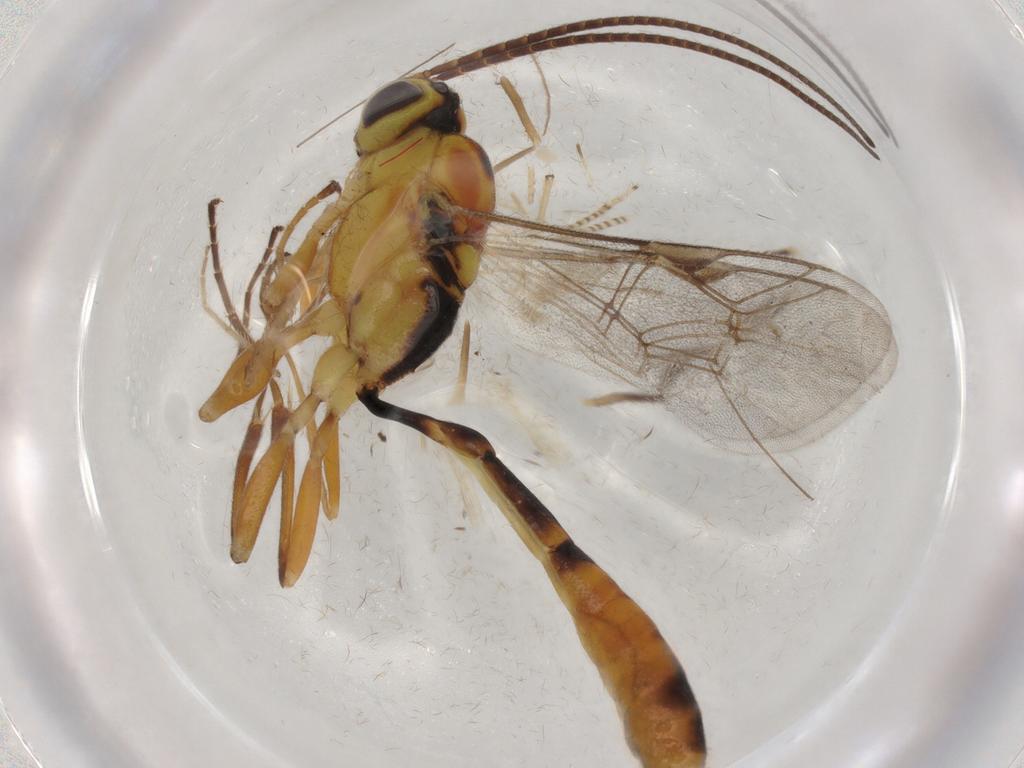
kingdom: Animalia
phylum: Arthropoda
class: Insecta
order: Hymenoptera
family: Ichneumonidae
